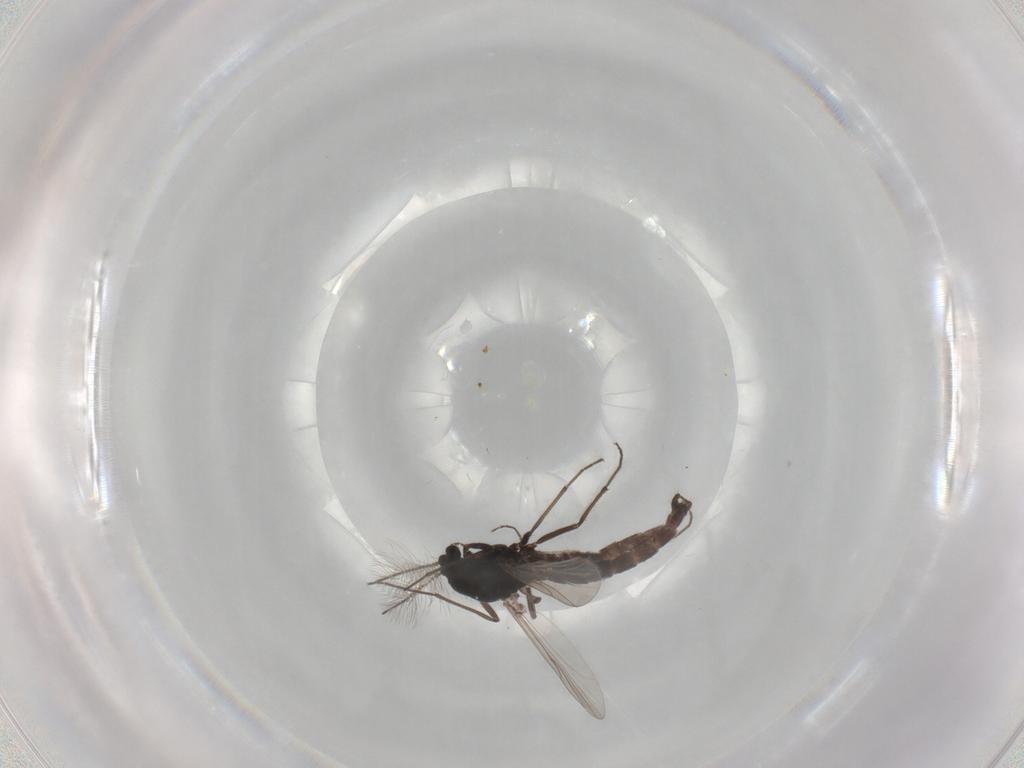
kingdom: Animalia
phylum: Arthropoda
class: Insecta
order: Diptera
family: Chironomidae
